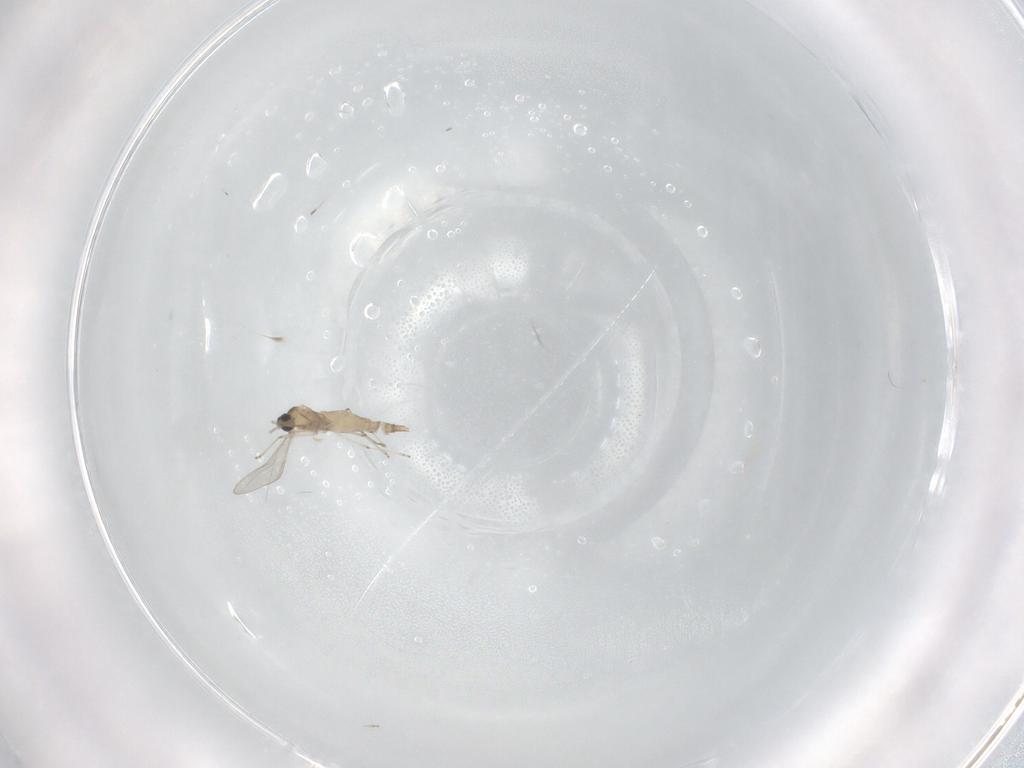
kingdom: Animalia
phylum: Arthropoda
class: Insecta
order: Diptera
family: Cecidomyiidae
